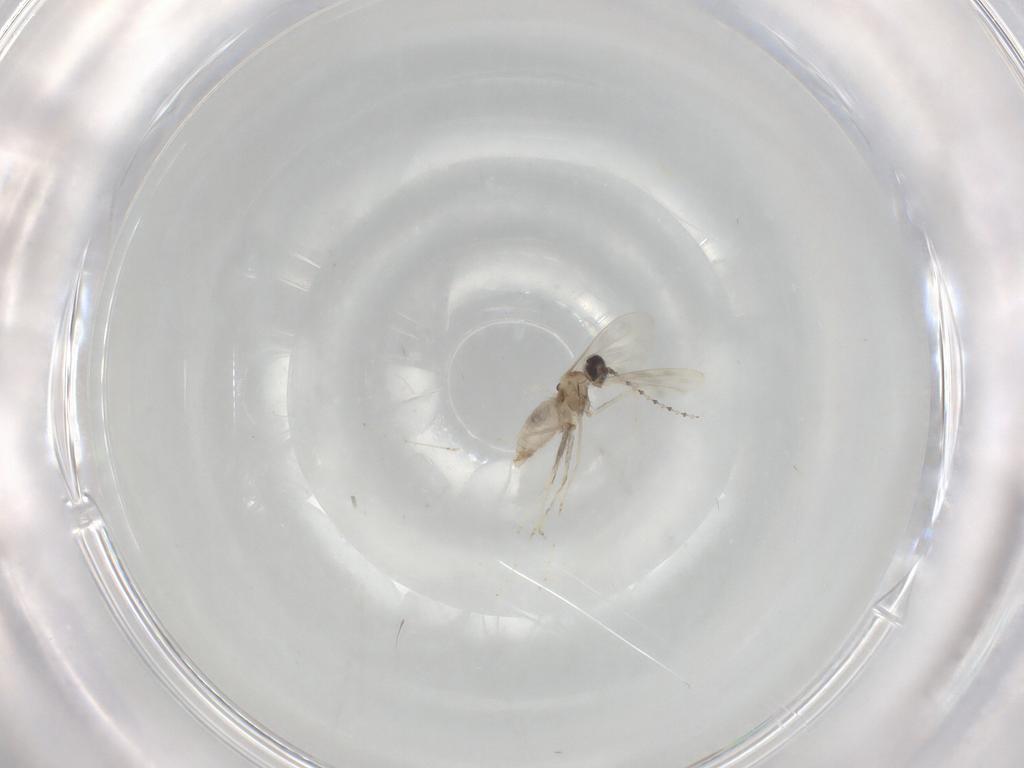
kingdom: Animalia
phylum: Arthropoda
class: Insecta
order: Diptera
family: Cecidomyiidae
